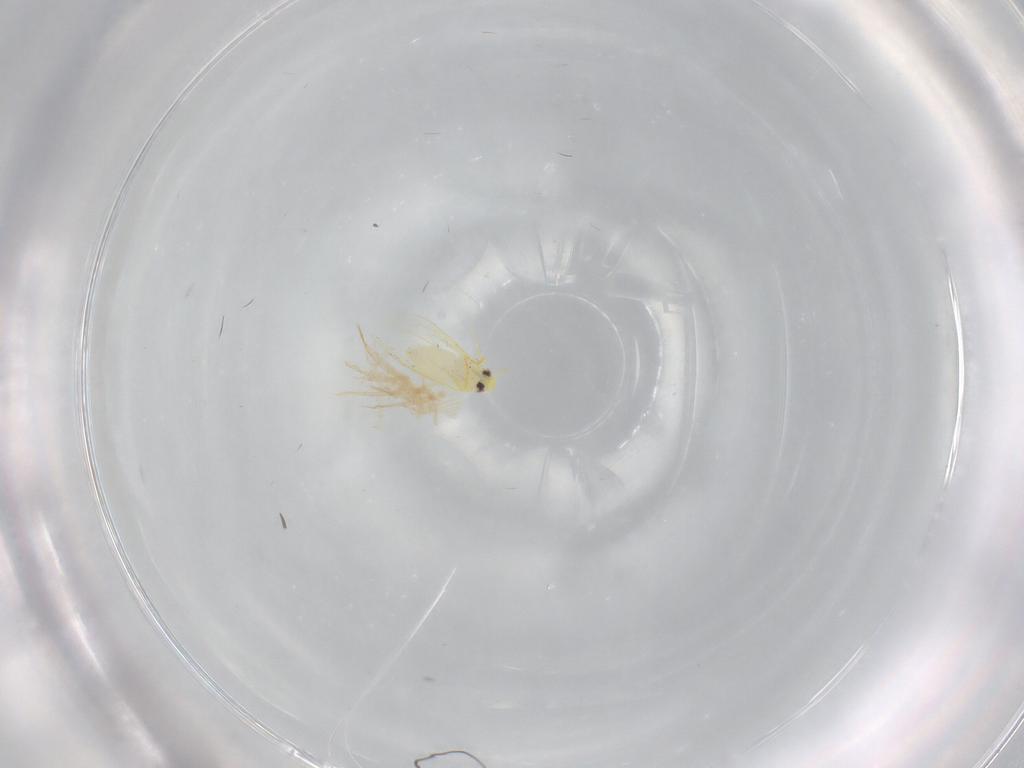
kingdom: Animalia
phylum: Arthropoda
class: Insecta
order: Hemiptera
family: Aleyrodidae
